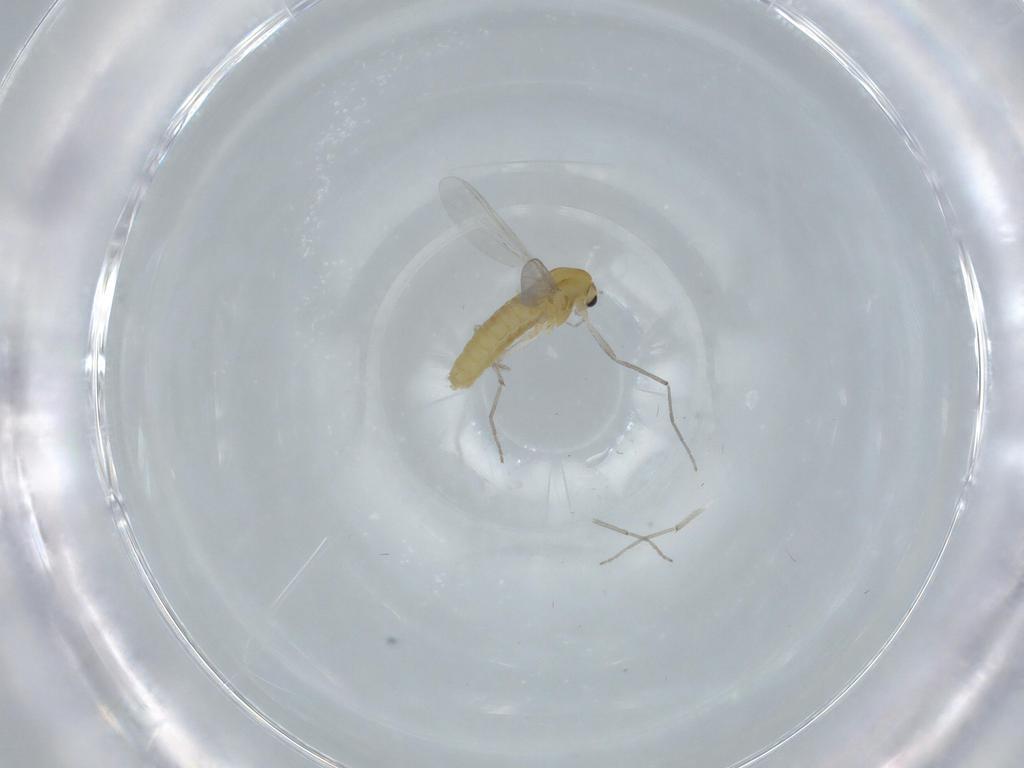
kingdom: Animalia
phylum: Arthropoda
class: Insecta
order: Diptera
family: Chironomidae
